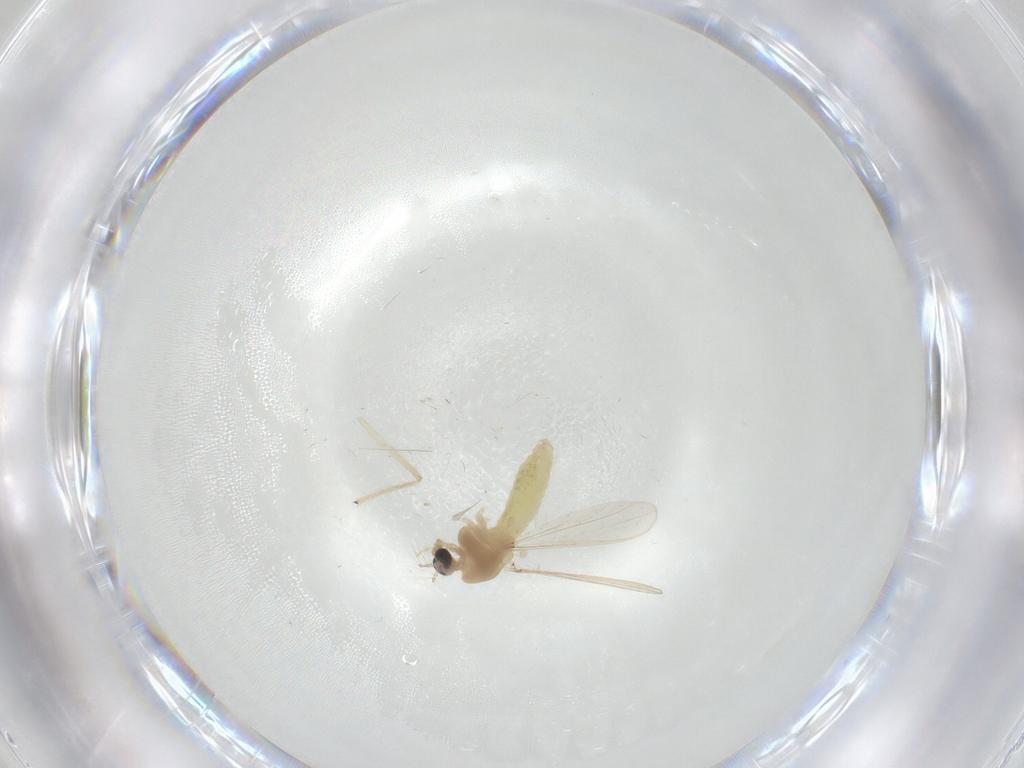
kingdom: Animalia
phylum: Arthropoda
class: Insecta
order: Diptera
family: Chironomidae
